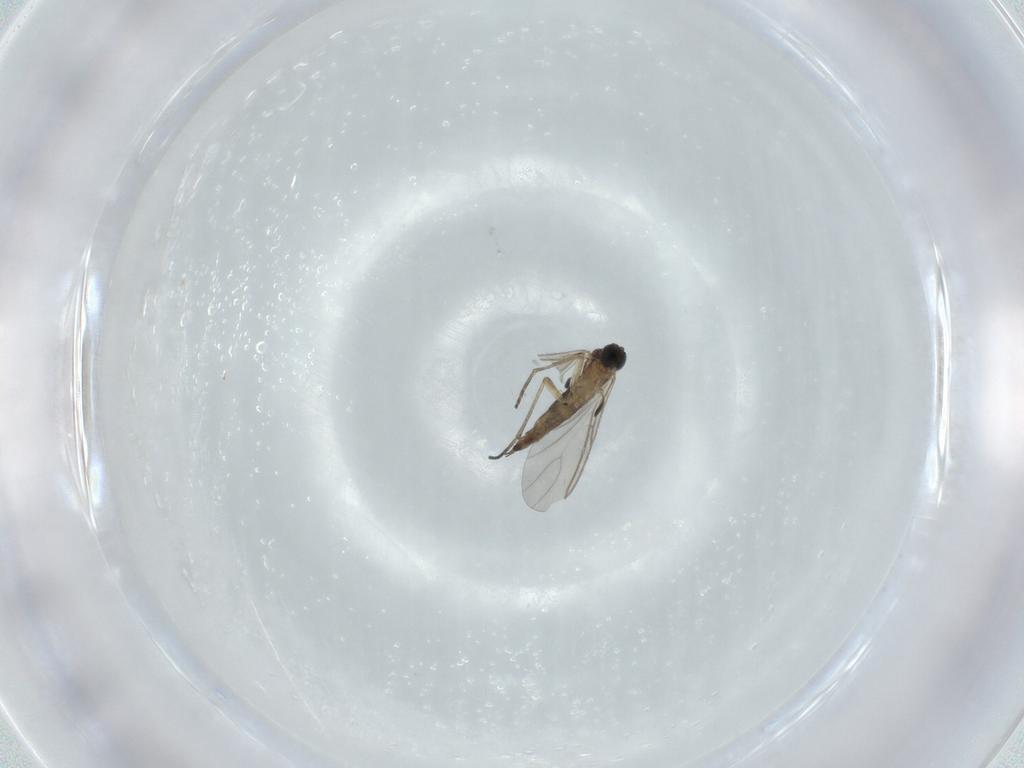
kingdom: Animalia
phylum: Arthropoda
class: Insecta
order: Diptera
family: Sciaridae
